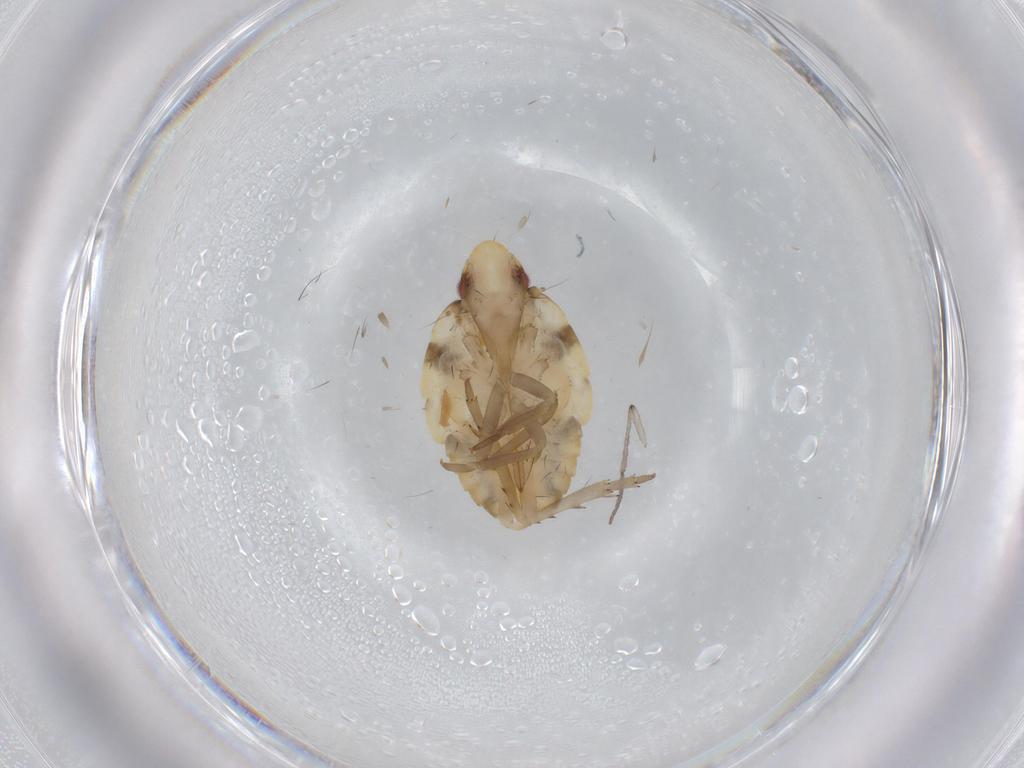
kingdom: Animalia
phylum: Arthropoda
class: Insecta
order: Hemiptera
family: Flatidae
